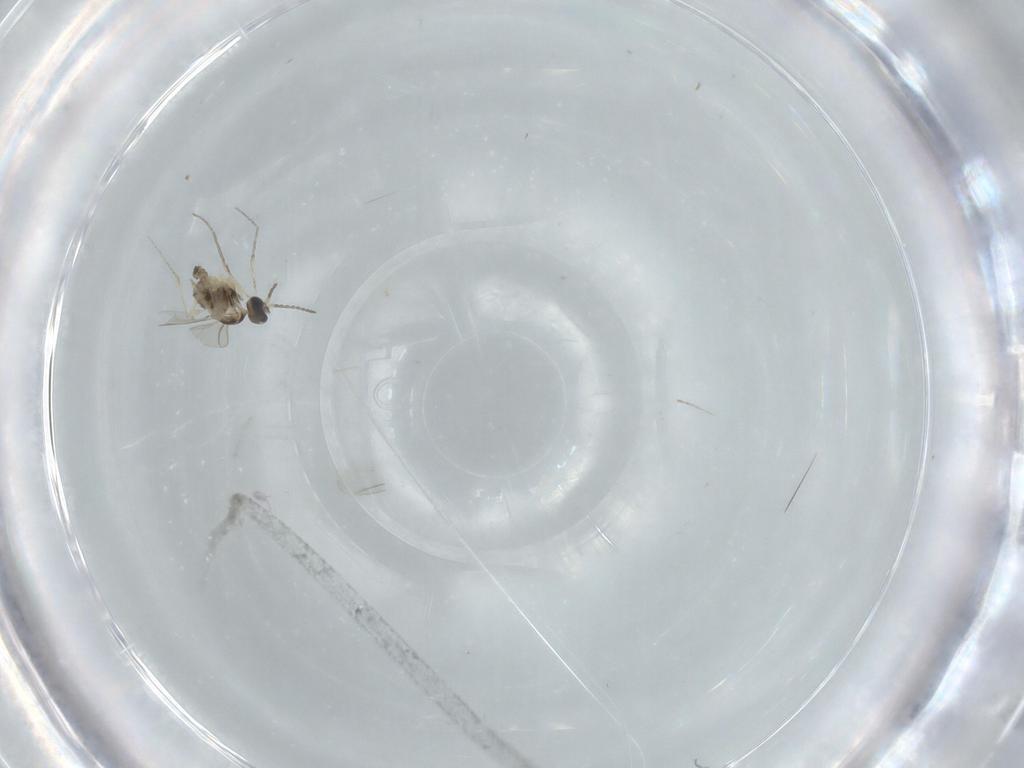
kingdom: Animalia
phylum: Arthropoda
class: Insecta
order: Diptera
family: Cecidomyiidae
